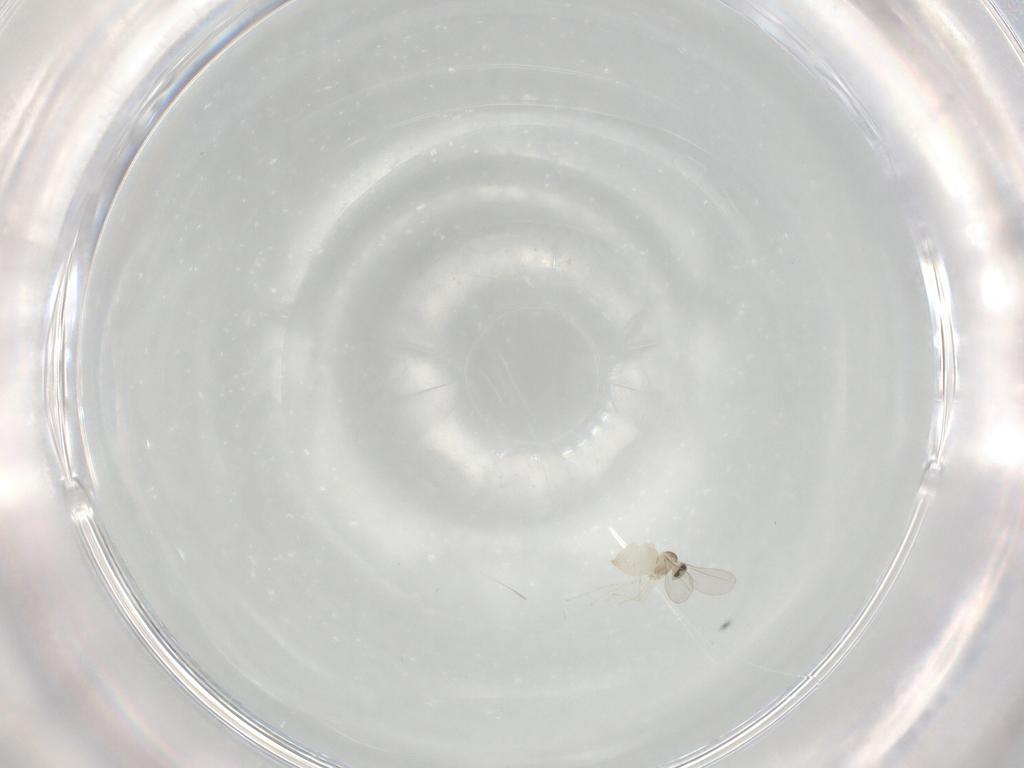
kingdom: Animalia
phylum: Arthropoda
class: Insecta
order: Diptera
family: Cecidomyiidae
